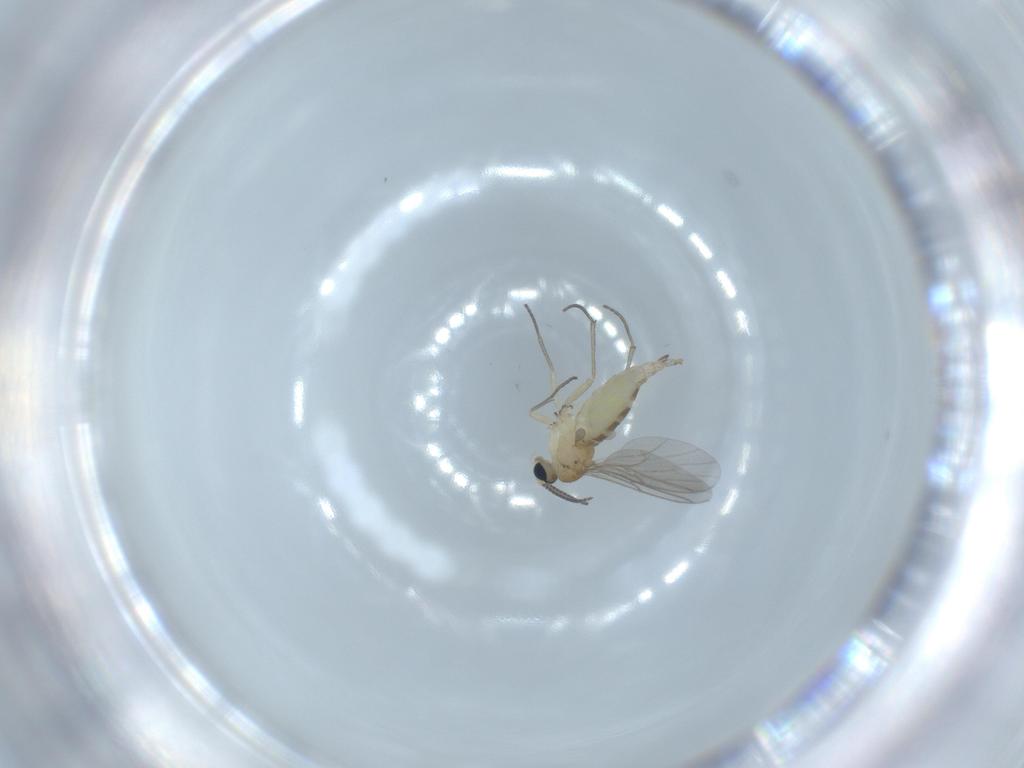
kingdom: Animalia
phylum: Arthropoda
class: Insecta
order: Diptera
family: Sciaridae
